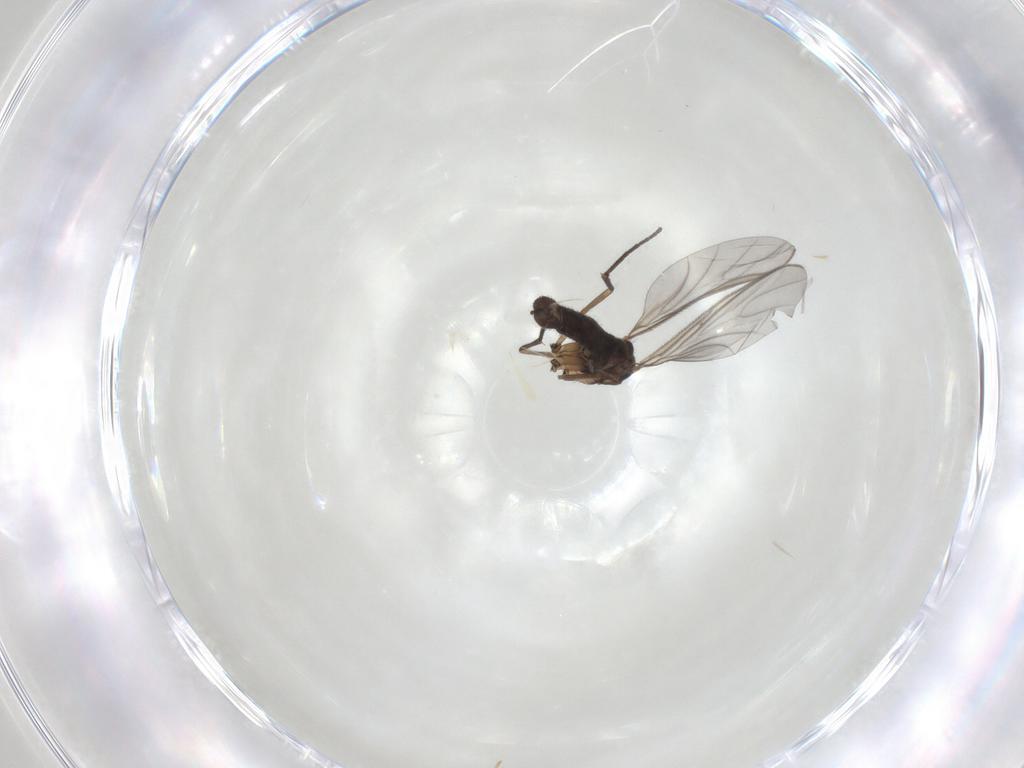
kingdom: Animalia
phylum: Arthropoda
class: Insecta
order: Diptera
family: Sciaridae
